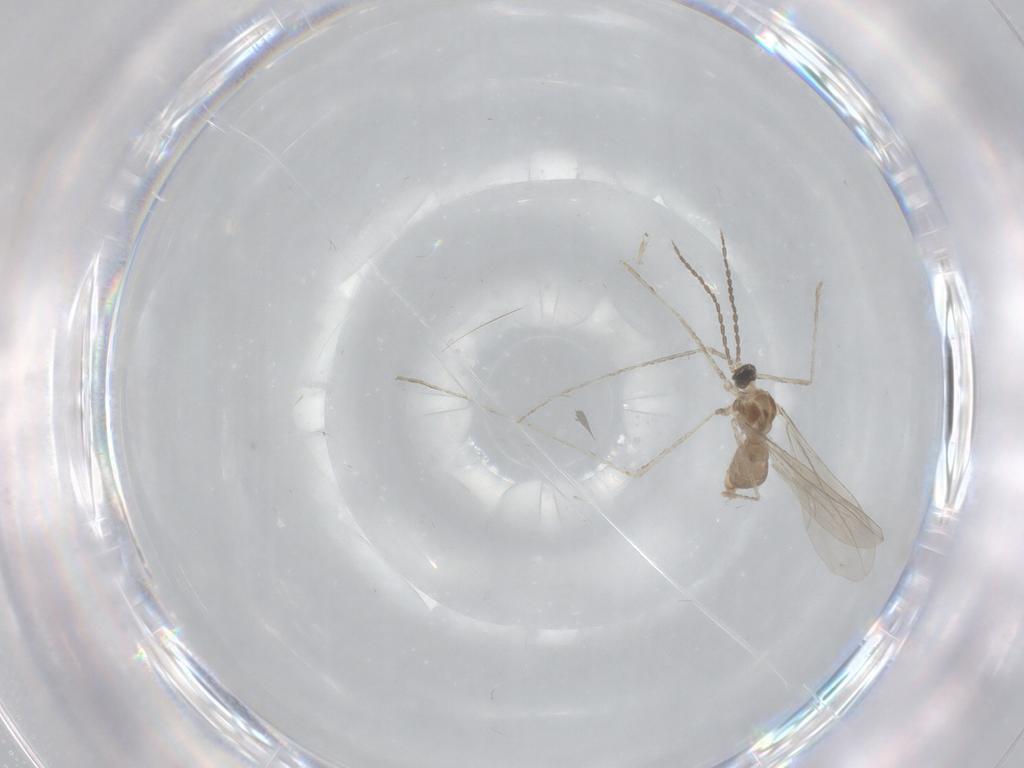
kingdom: Animalia
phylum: Arthropoda
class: Insecta
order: Diptera
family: Cecidomyiidae
